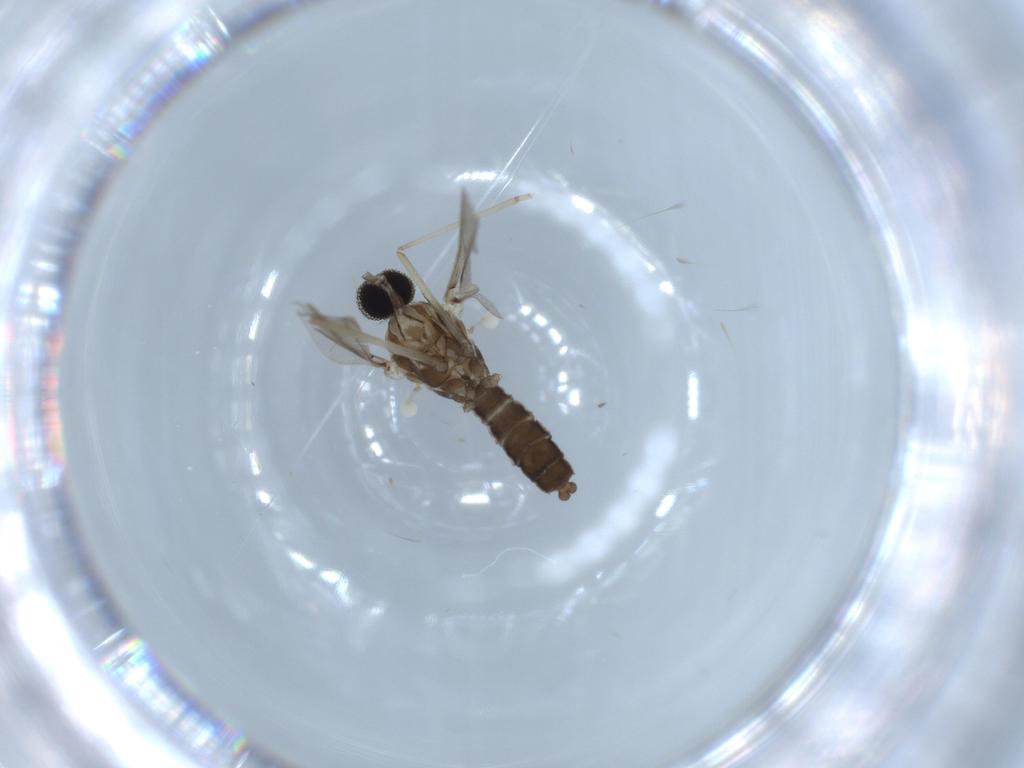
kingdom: Animalia
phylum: Arthropoda
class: Insecta
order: Diptera
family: Cecidomyiidae
